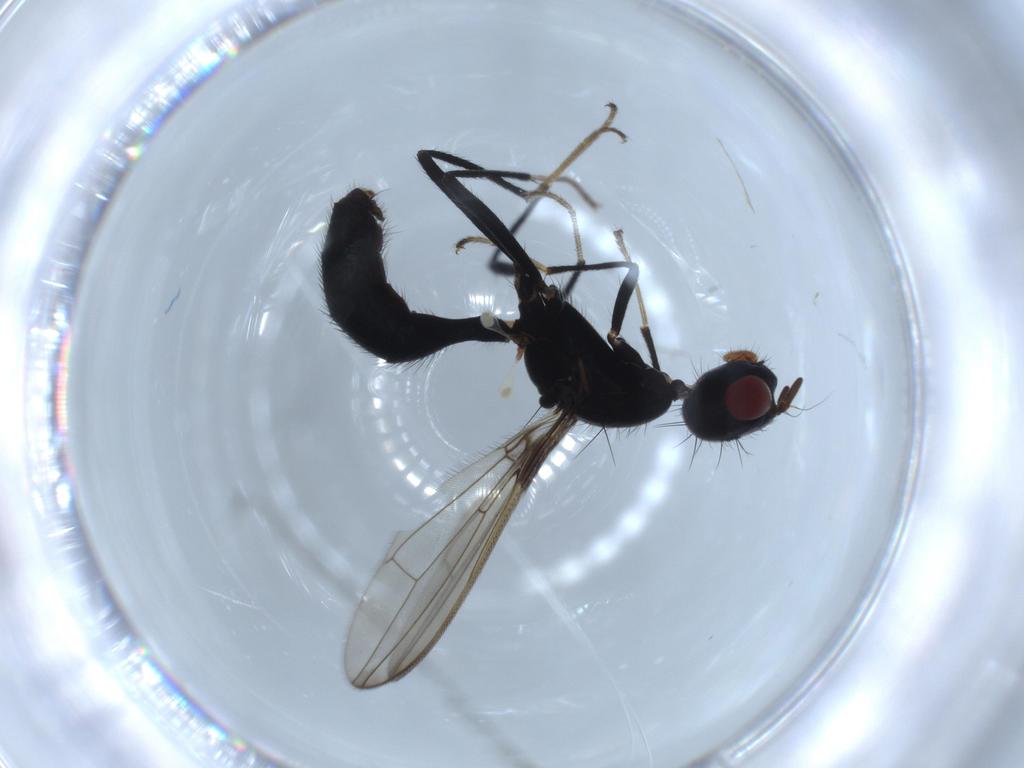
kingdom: Animalia
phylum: Arthropoda
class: Insecta
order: Diptera
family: Richardiidae
